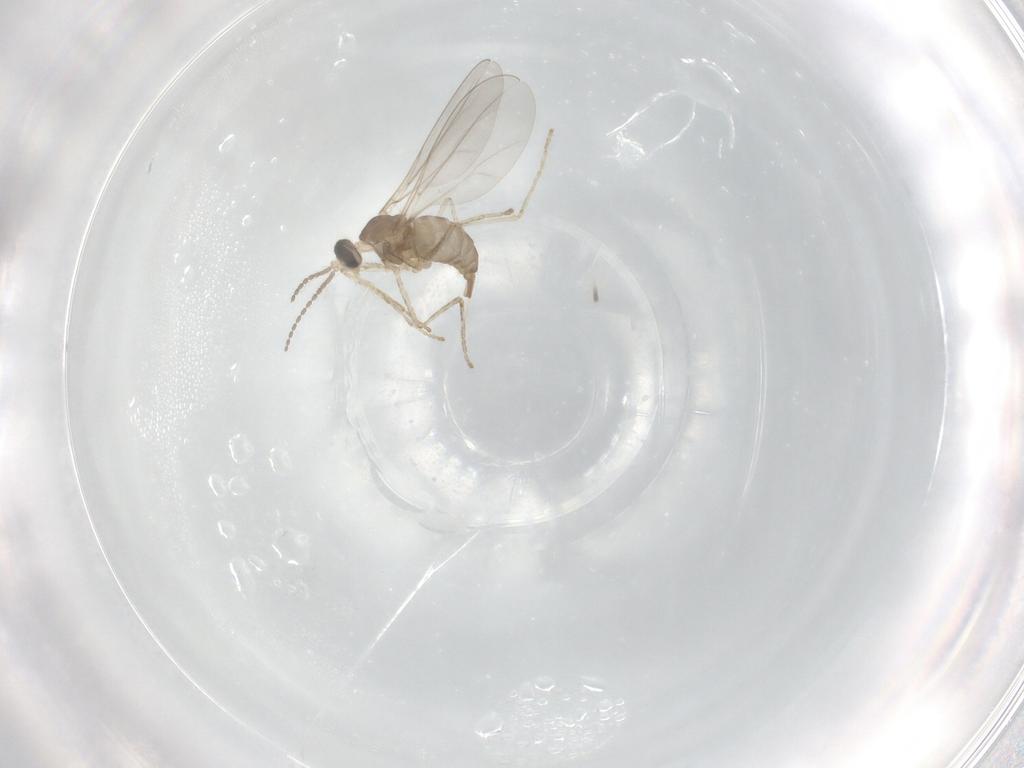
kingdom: Animalia
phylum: Arthropoda
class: Insecta
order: Diptera
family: Cecidomyiidae
